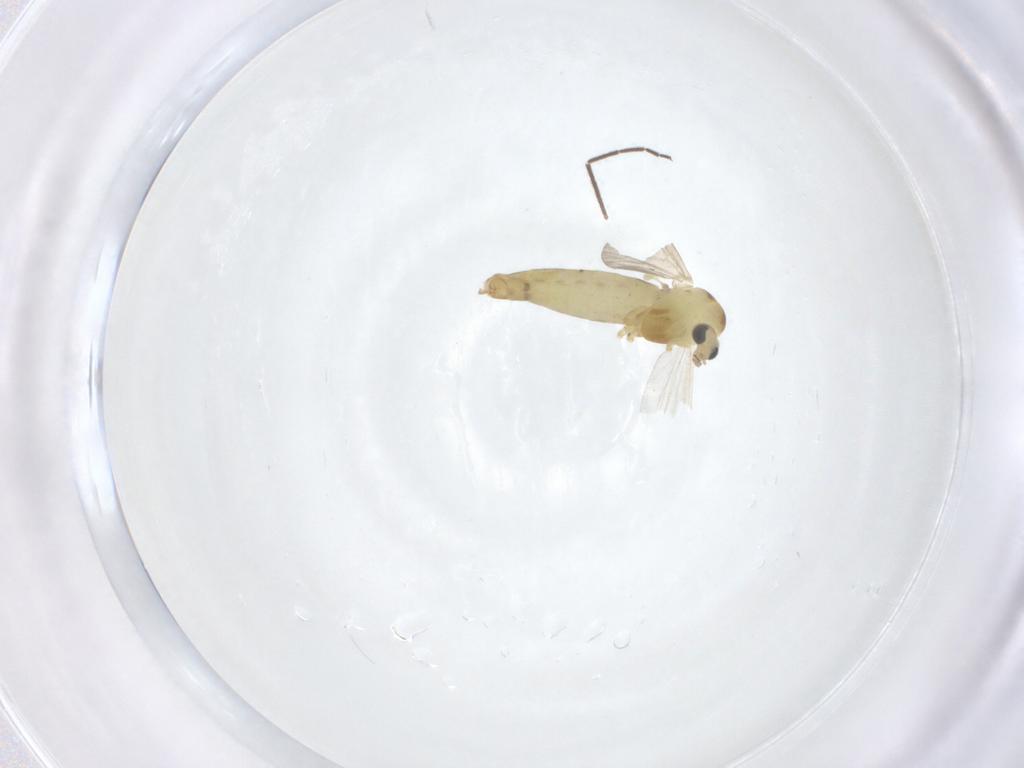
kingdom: Animalia
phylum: Arthropoda
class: Insecta
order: Diptera
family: Chironomidae
